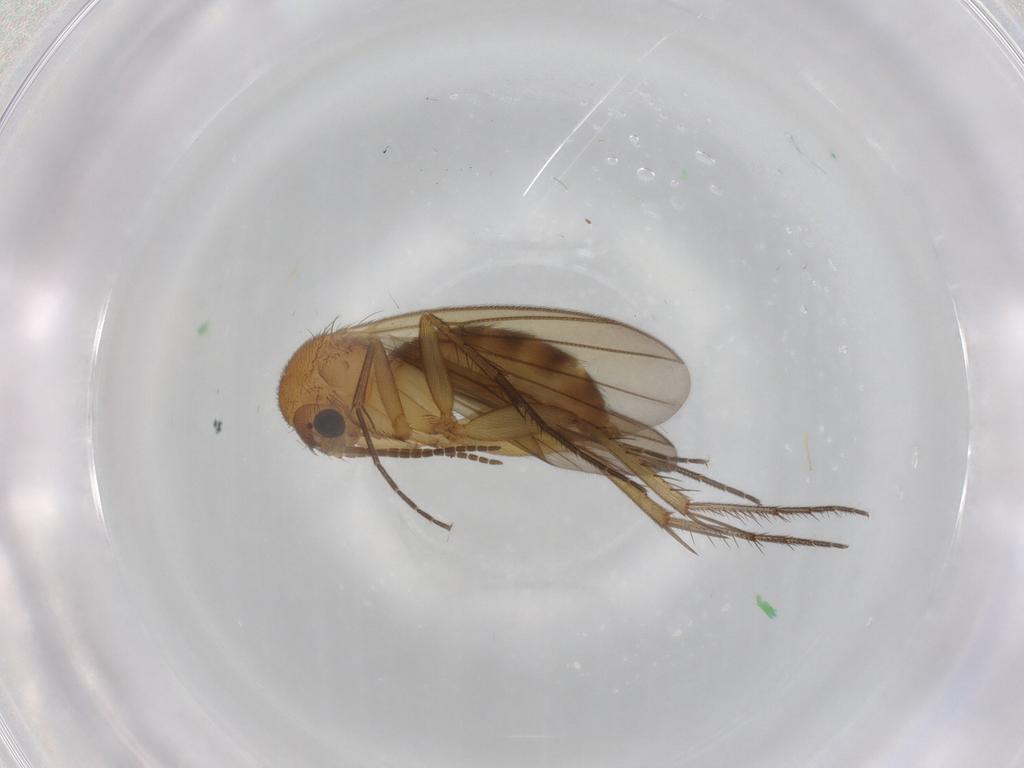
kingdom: Animalia
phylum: Arthropoda
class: Insecta
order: Diptera
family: Mycetophilidae
